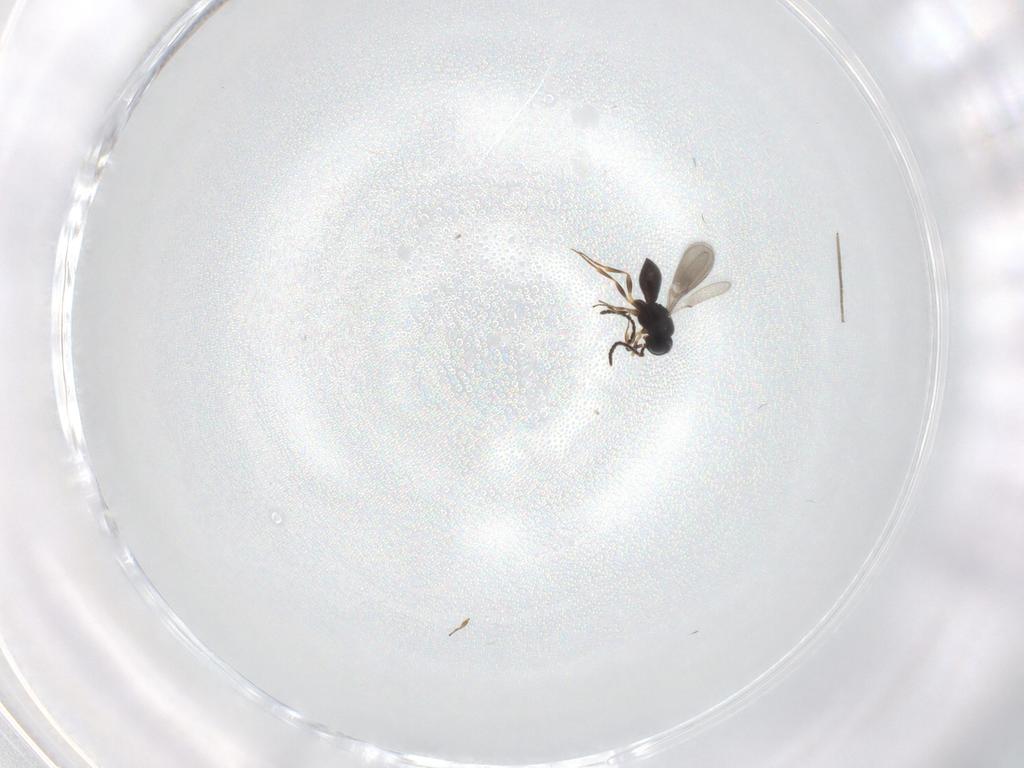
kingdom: Animalia
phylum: Arthropoda
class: Insecta
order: Hymenoptera
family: Scelionidae
